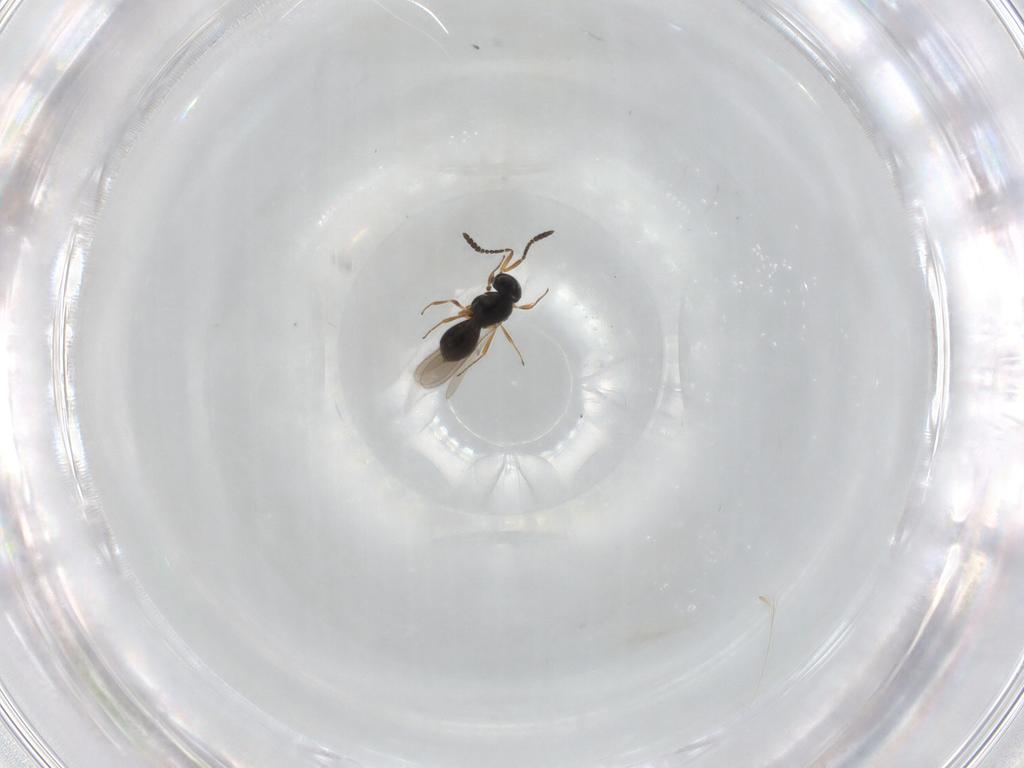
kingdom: Animalia
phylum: Arthropoda
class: Insecta
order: Hymenoptera
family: Scelionidae
